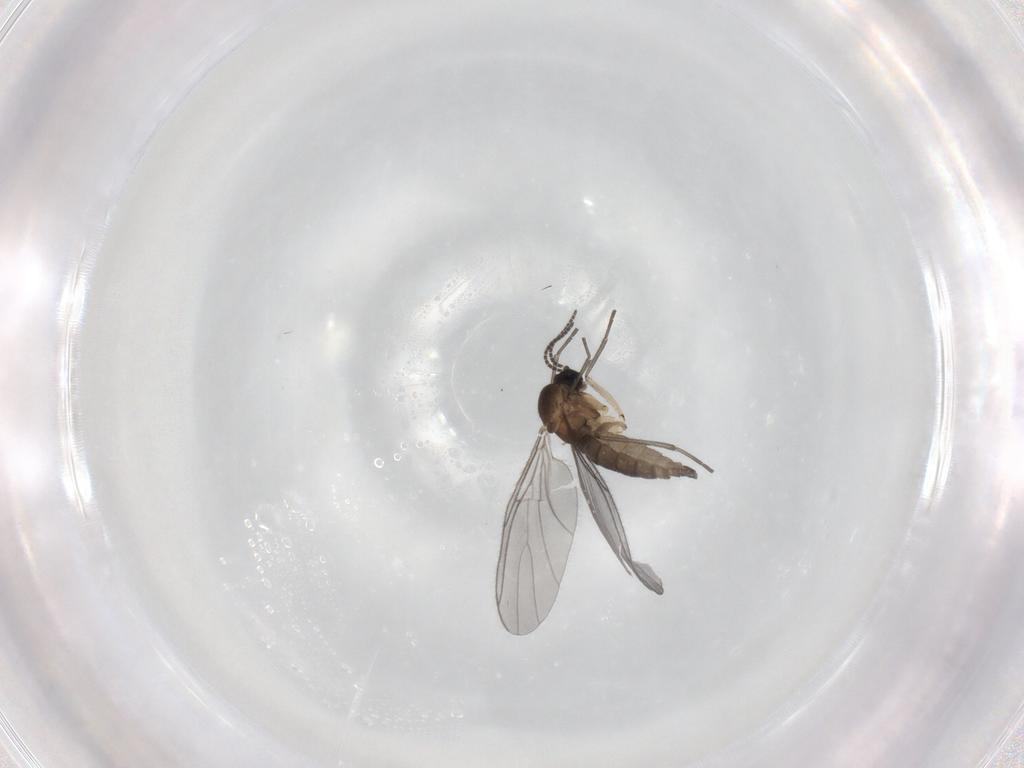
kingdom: Animalia
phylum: Arthropoda
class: Insecta
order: Diptera
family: Sciaridae
